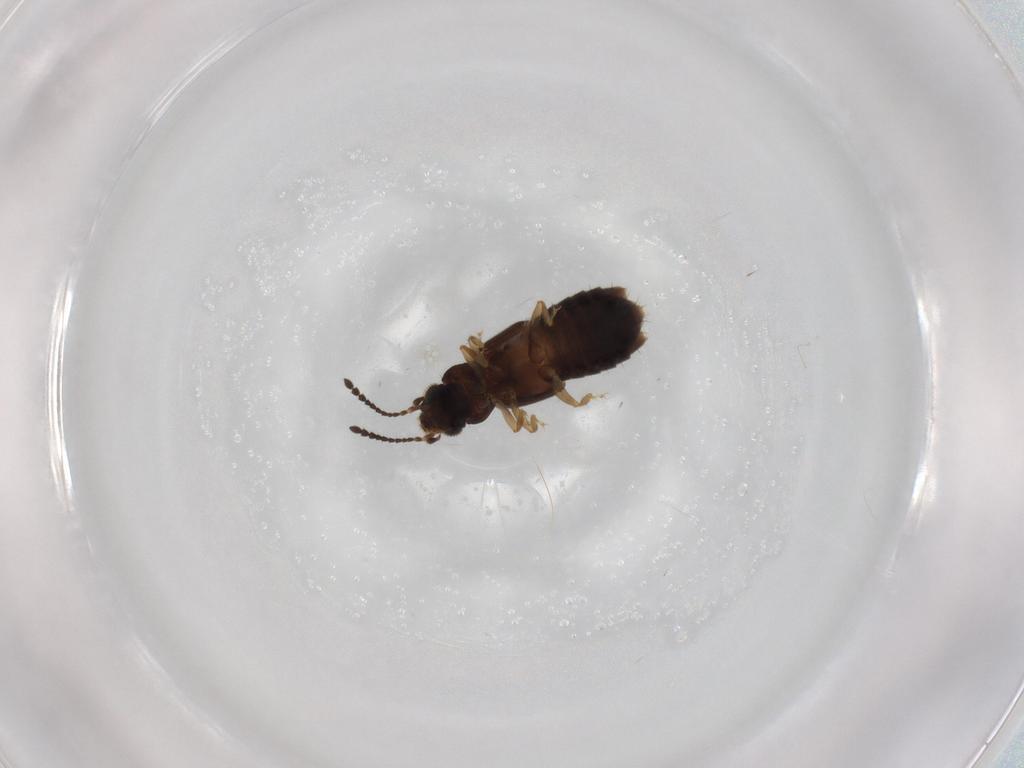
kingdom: Animalia
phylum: Arthropoda
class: Insecta
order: Coleoptera
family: Staphylinidae
